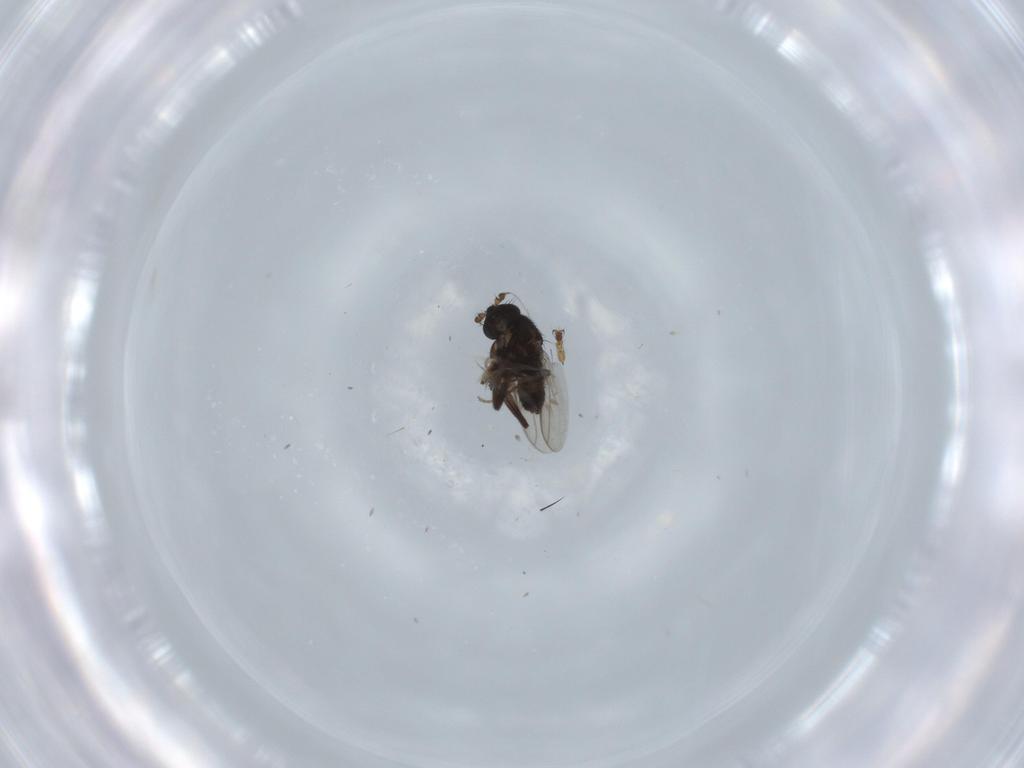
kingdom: Animalia
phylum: Arthropoda
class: Insecta
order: Diptera
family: Sphaeroceridae
